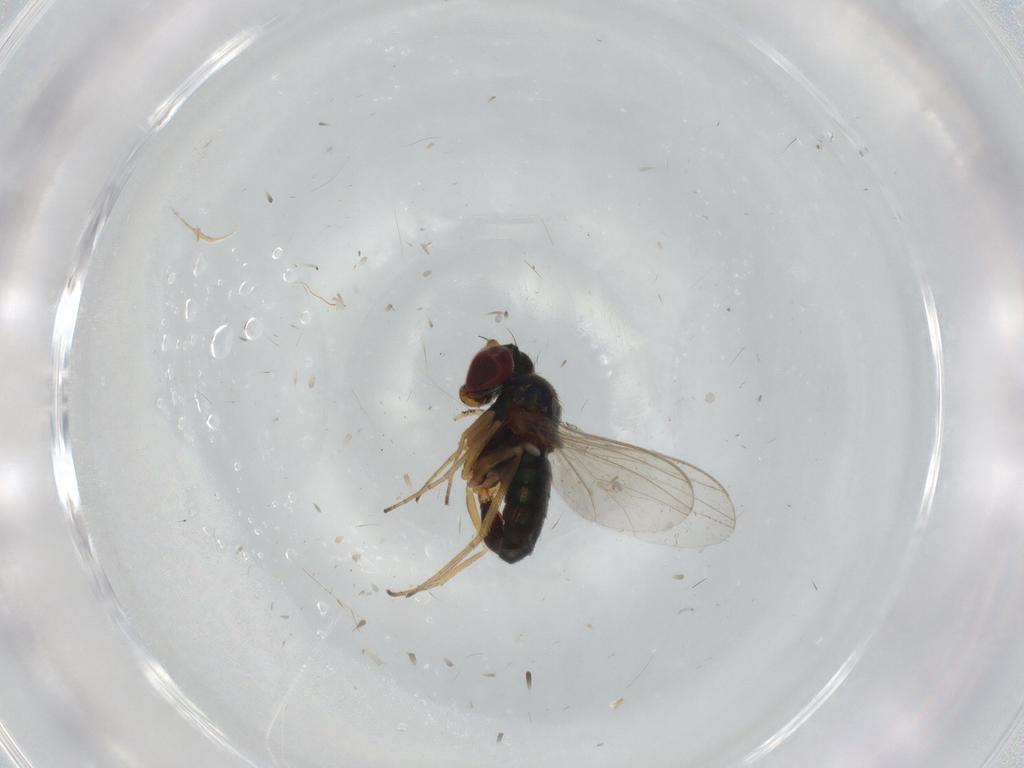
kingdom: Animalia
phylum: Arthropoda
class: Insecta
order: Diptera
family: Dolichopodidae
